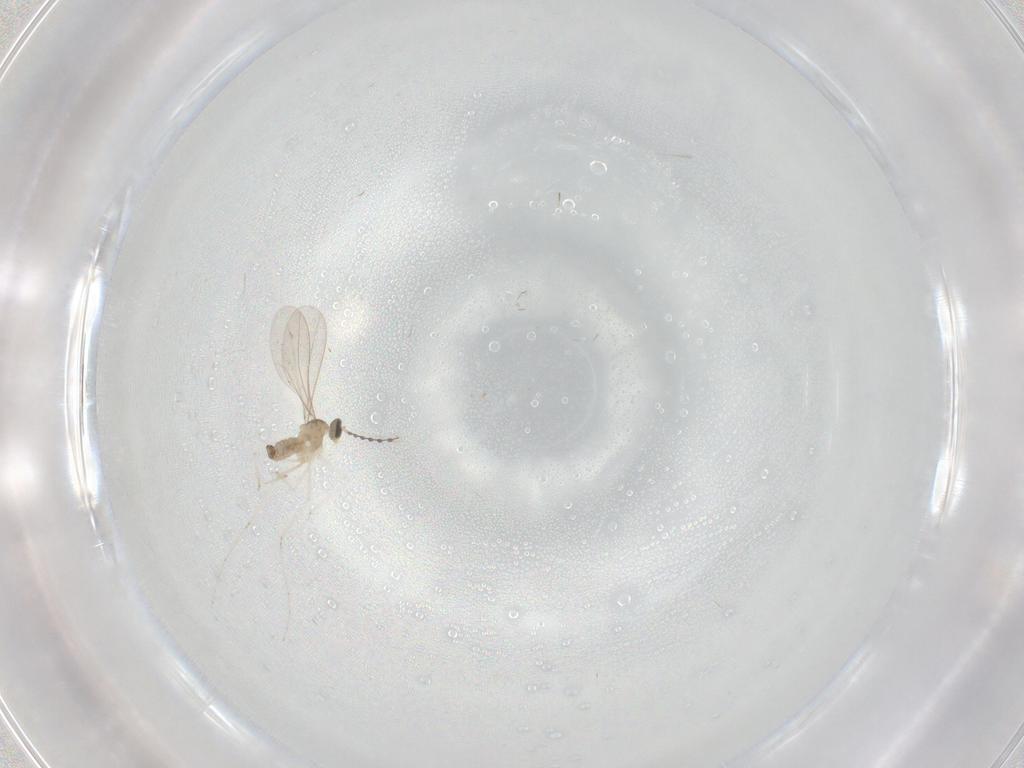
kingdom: Animalia
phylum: Arthropoda
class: Insecta
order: Diptera
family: Cecidomyiidae
